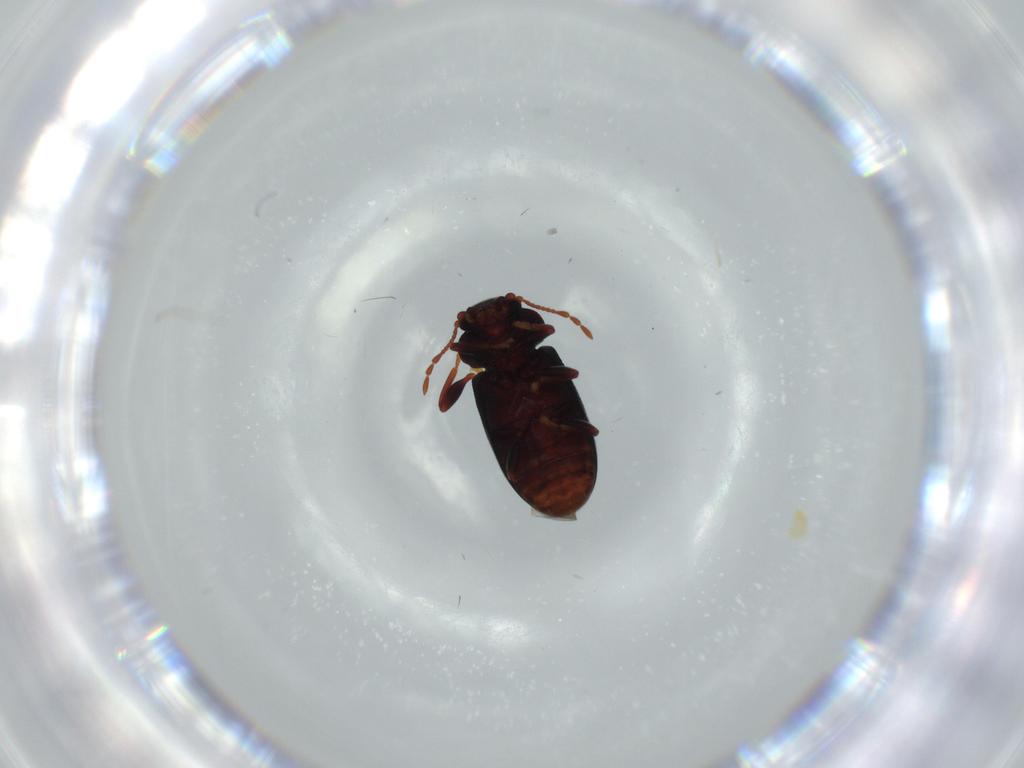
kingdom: Animalia
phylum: Arthropoda
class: Insecta
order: Coleoptera
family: Ptinidae
